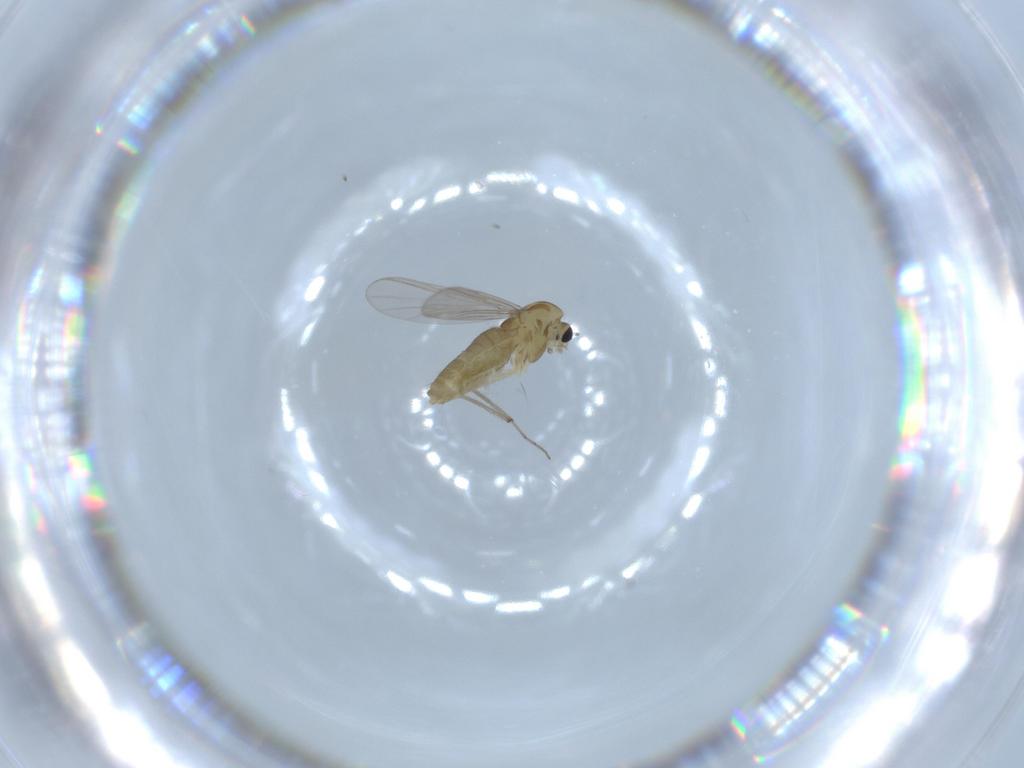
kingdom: Animalia
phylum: Arthropoda
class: Insecta
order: Diptera
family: Chironomidae
